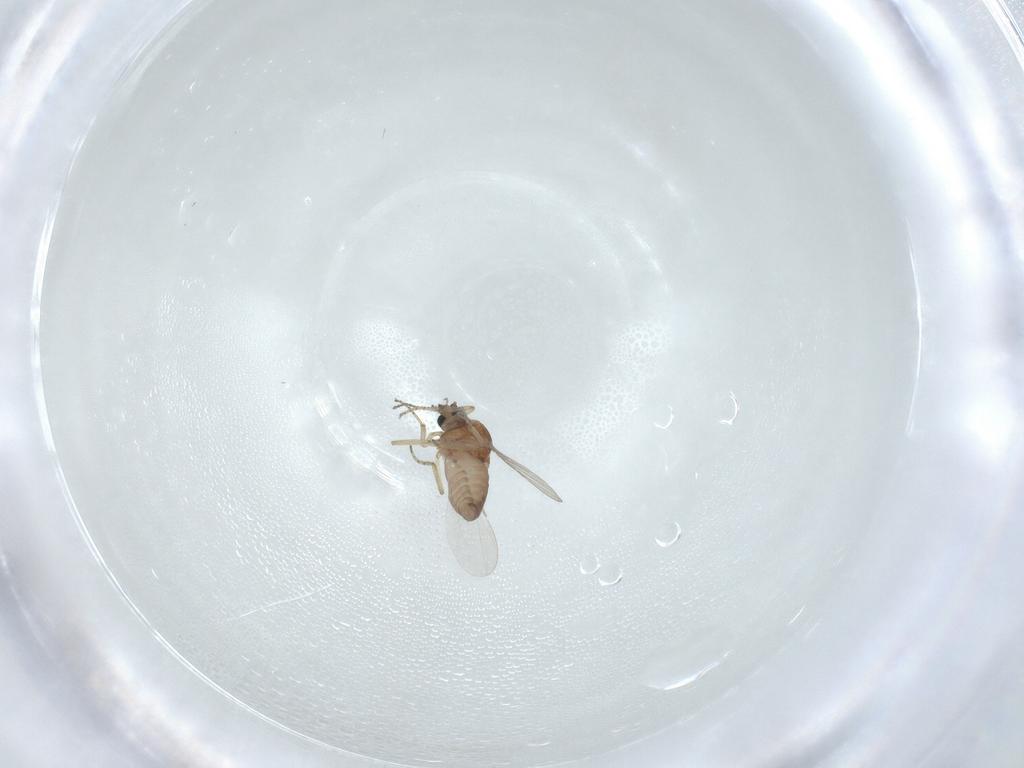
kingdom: Animalia
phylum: Arthropoda
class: Insecta
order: Diptera
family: Ceratopogonidae
